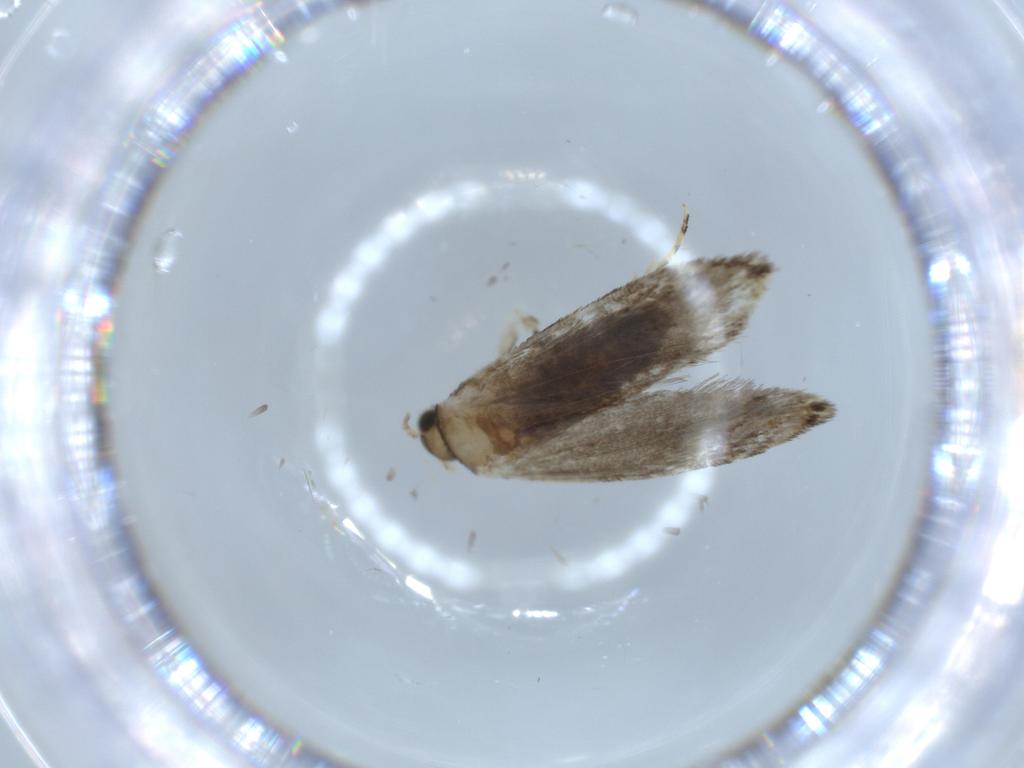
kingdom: Animalia
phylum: Arthropoda
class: Insecta
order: Lepidoptera
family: Tineidae
